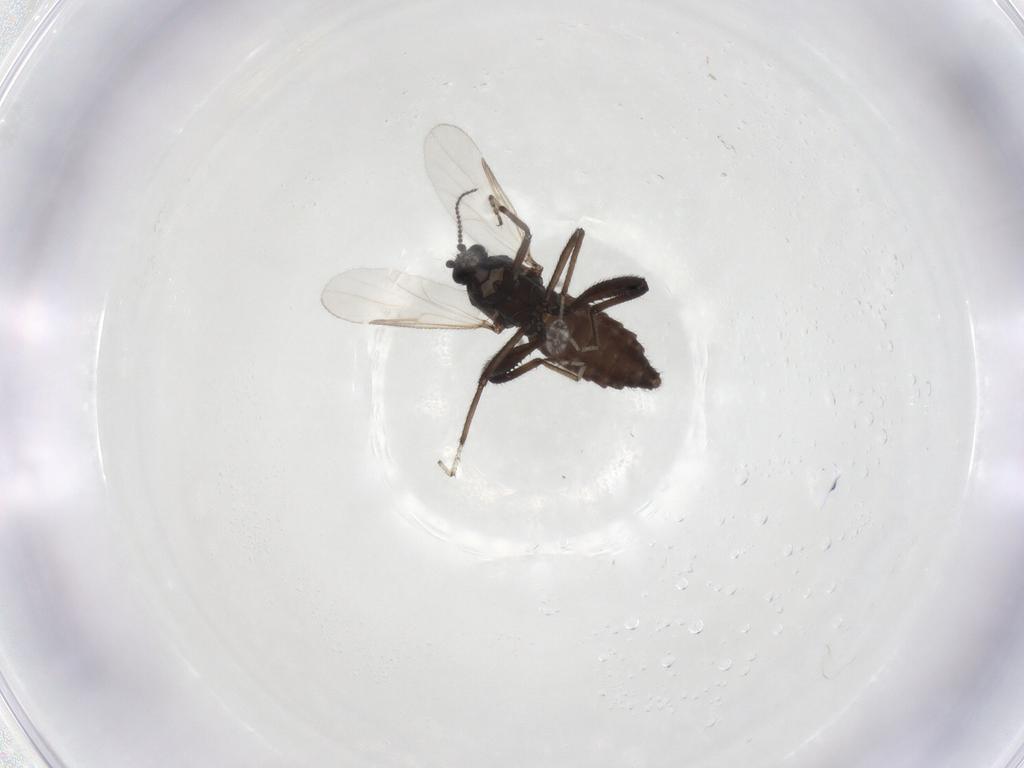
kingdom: Animalia
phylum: Arthropoda
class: Insecta
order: Diptera
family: Ceratopogonidae
